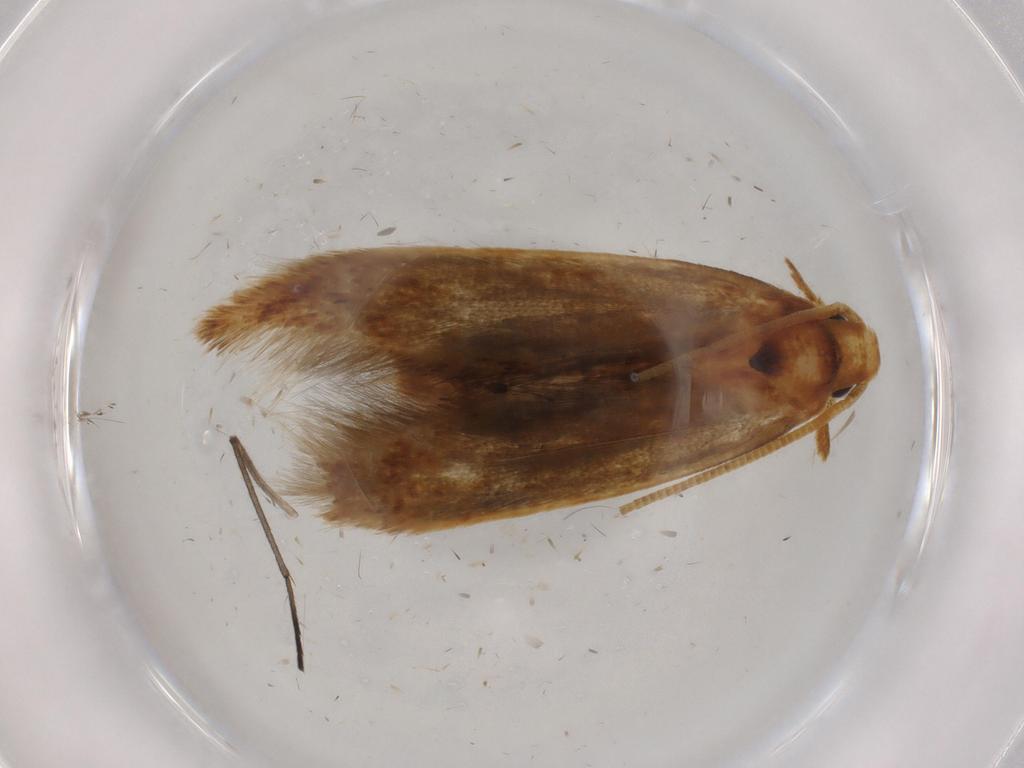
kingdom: Animalia
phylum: Arthropoda
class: Insecta
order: Lepidoptera
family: Tineidae
